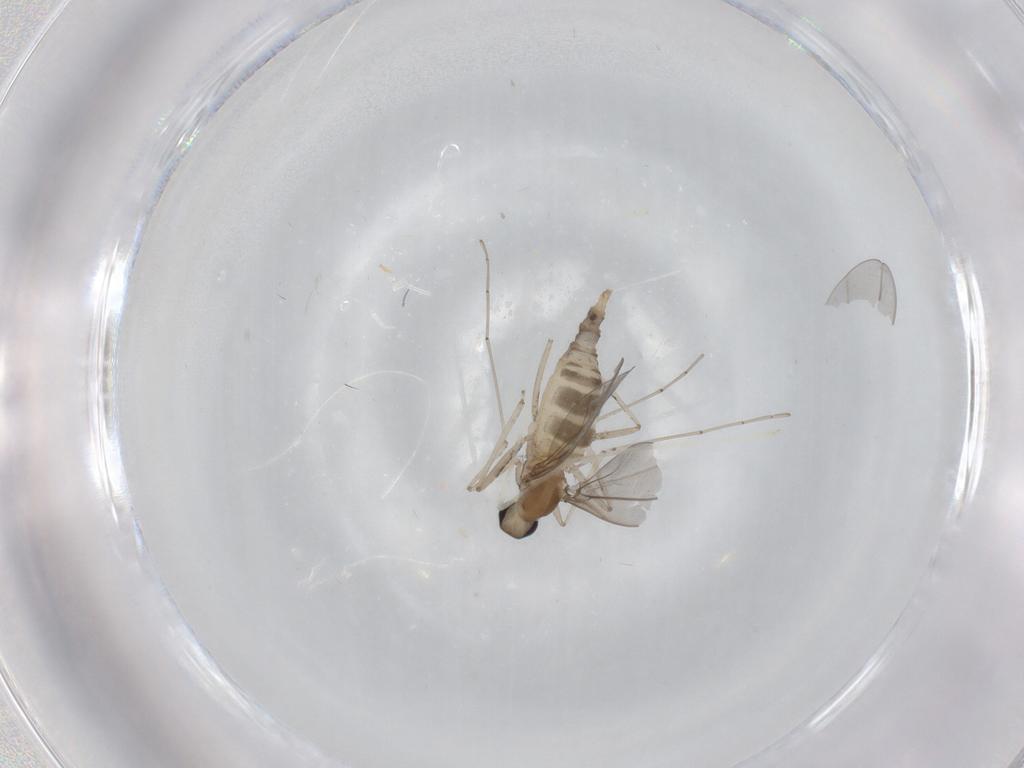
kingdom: Animalia
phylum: Arthropoda
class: Insecta
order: Diptera
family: Cecidomyiidae
